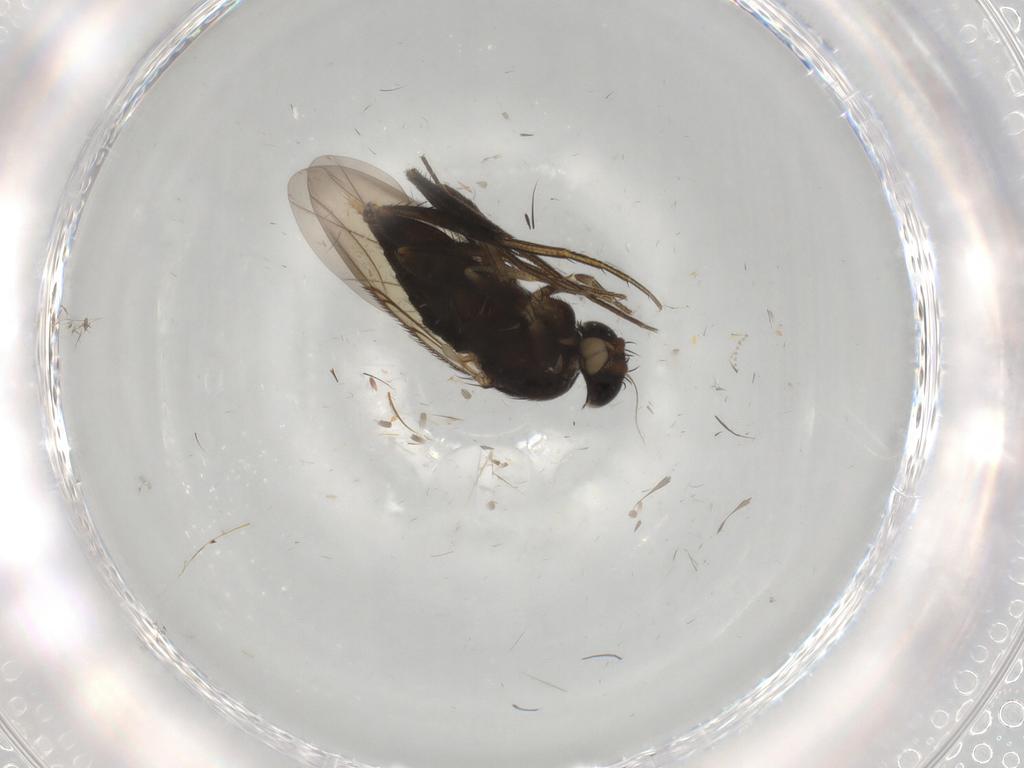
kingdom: Animalia
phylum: Arthropoda
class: Insecta
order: Diptera
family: Phoridae
